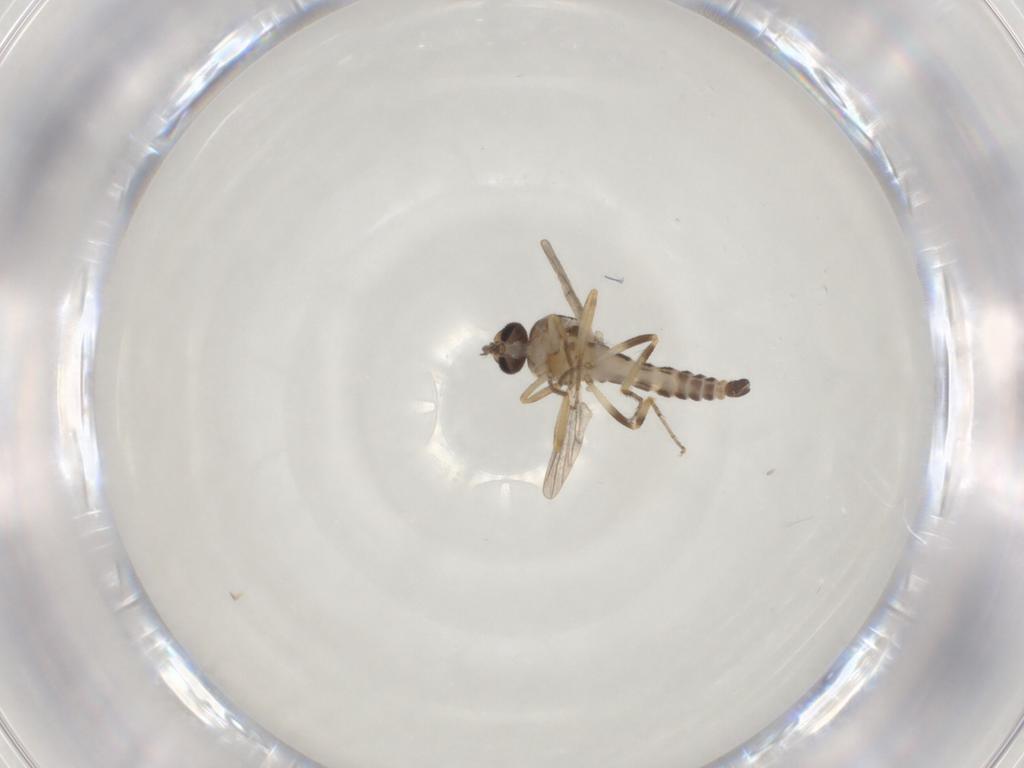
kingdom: Animalia
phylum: Arthropoda
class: Insecta
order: Diptera
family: Ceratopogonidae
